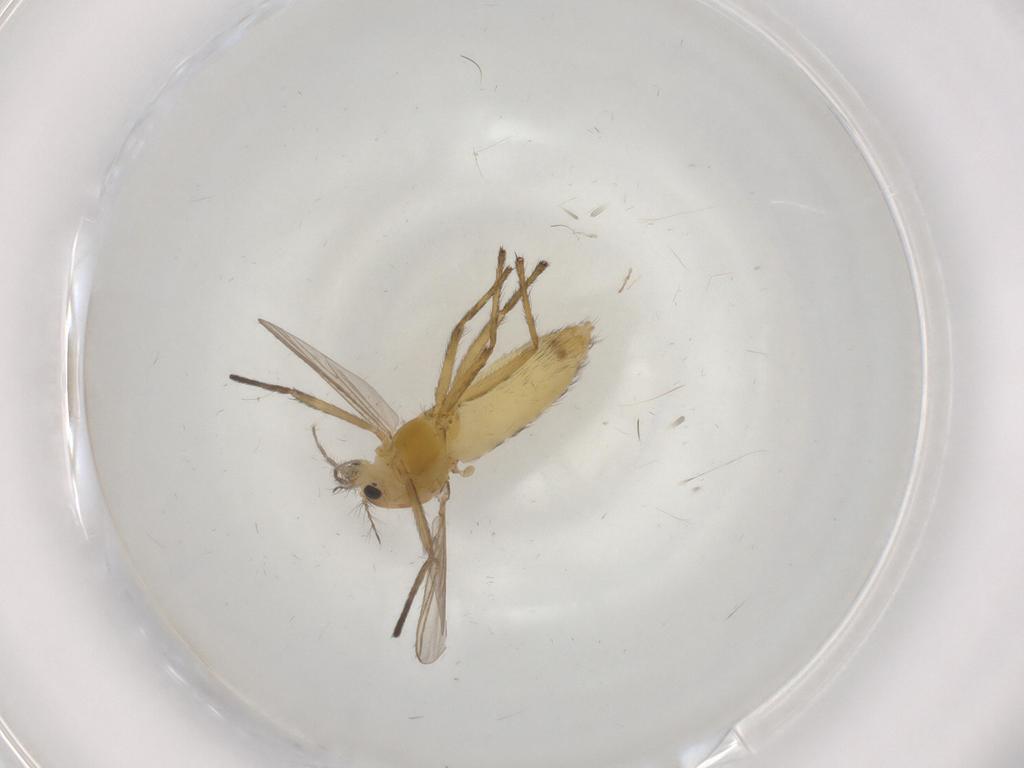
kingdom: Animalia
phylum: Arthropoda
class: Insecta
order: Diptera
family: Chironomidae
